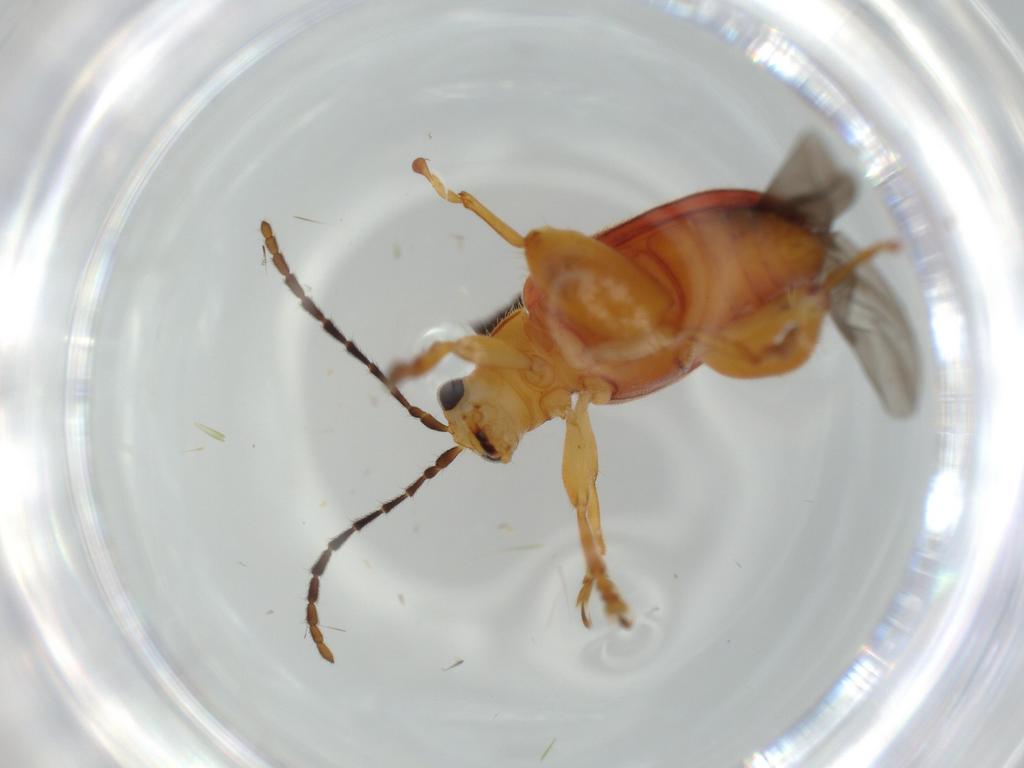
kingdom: Animalia
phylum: Arthropoda
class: Insecta
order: Coleoptera
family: Chrysomelidae
